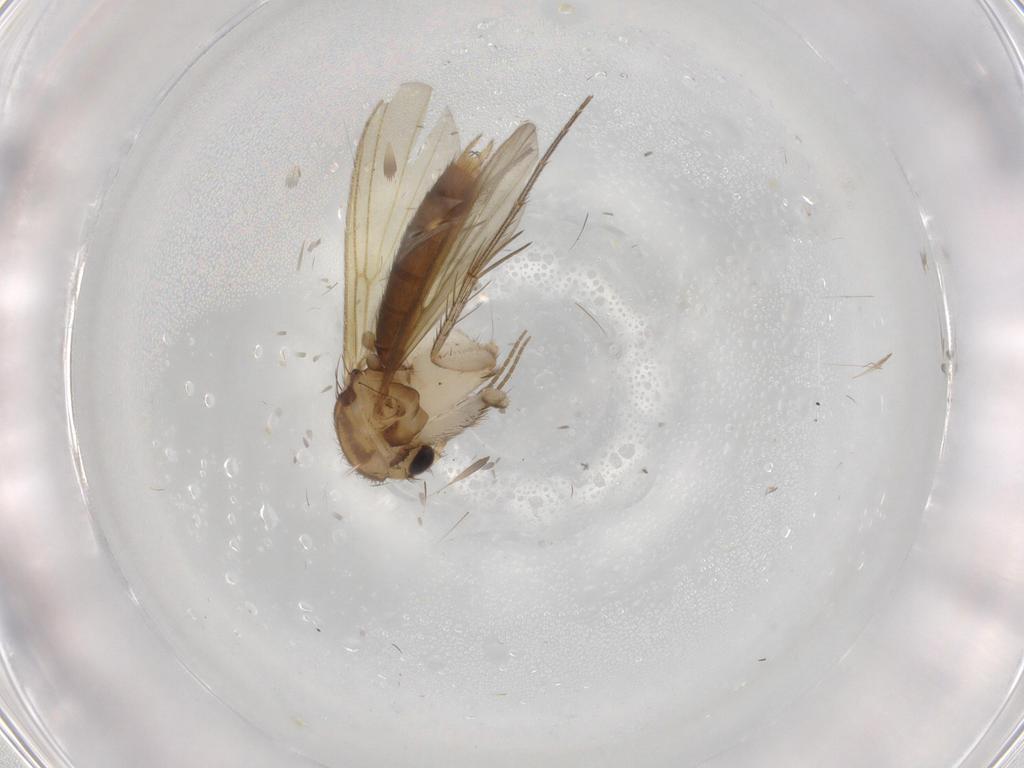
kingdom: Animalia
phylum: Arthropoda
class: Insecta
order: Diptera
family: Mycetophilidae
